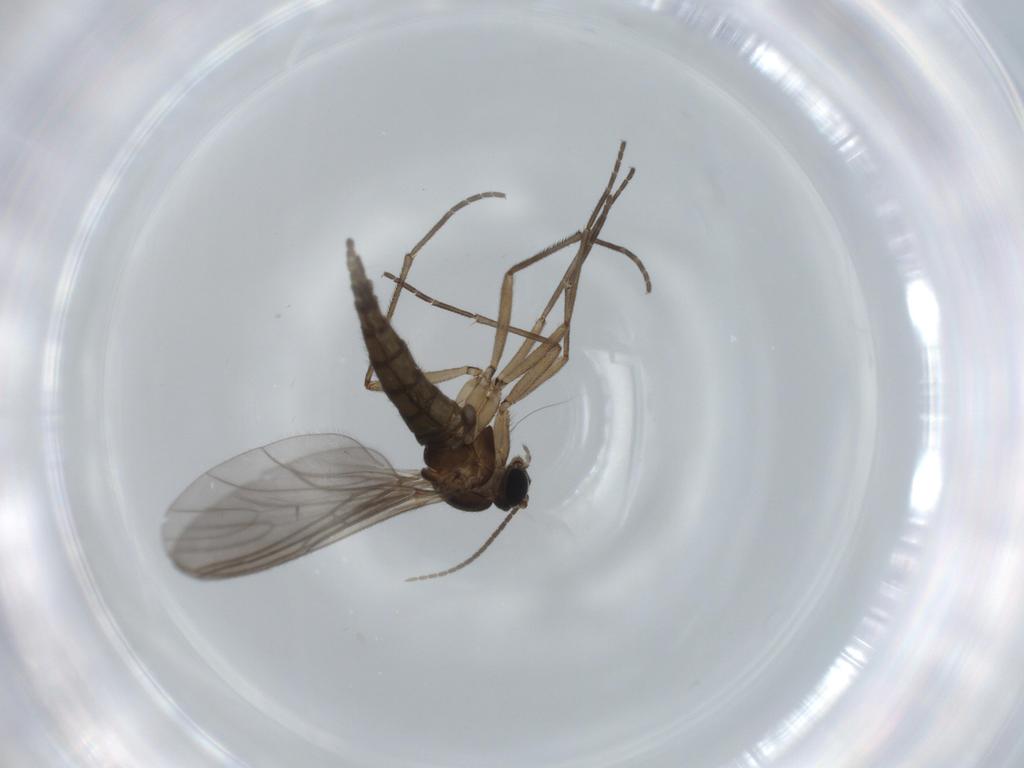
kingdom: Animalia
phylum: Arthropoda
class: Insecta
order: Diptera
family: Sciaridae
